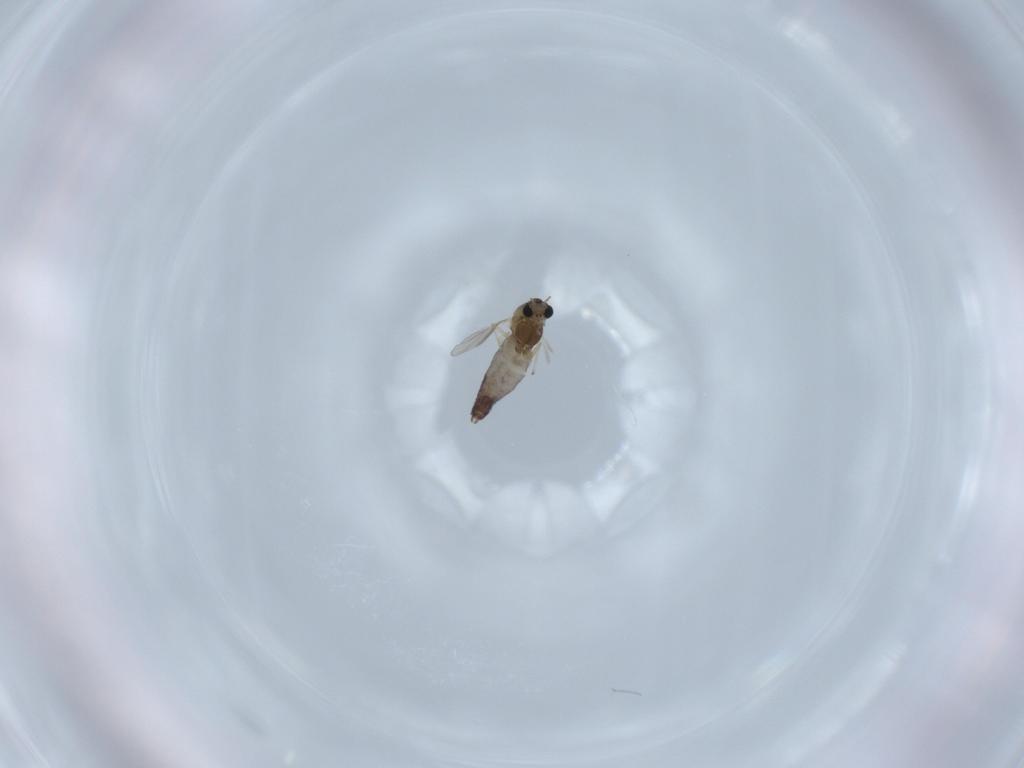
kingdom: Animalia
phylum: Arthropoda
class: Insecta
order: Diptera
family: Chironomidae
